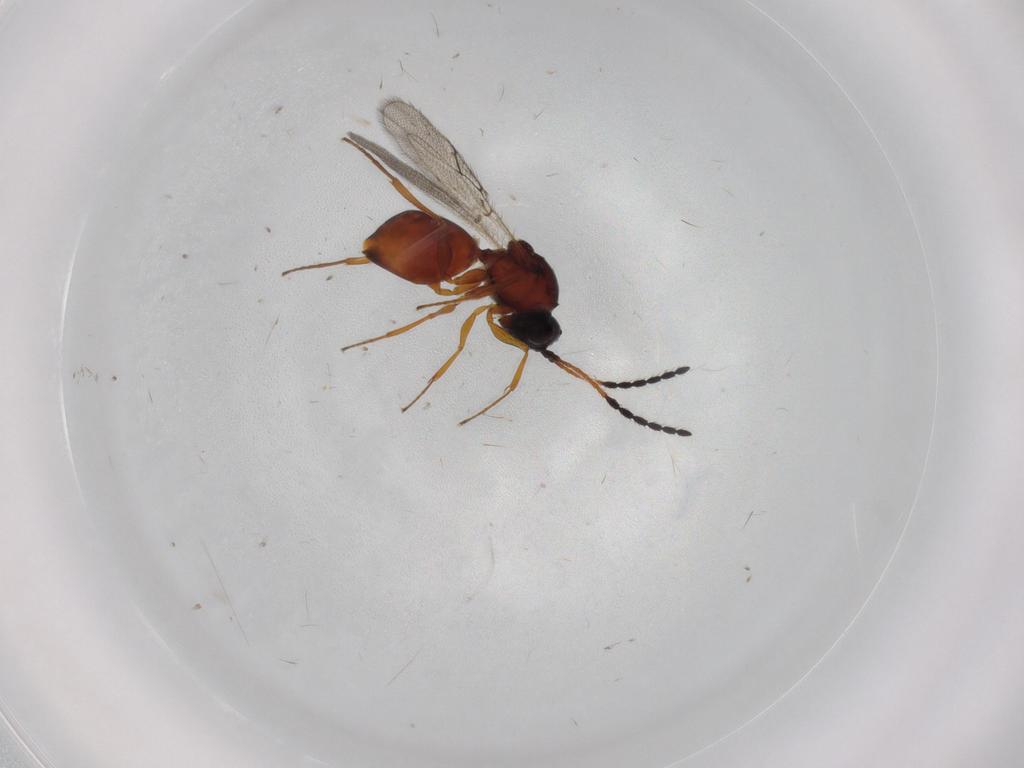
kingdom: Animalia
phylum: Arthropoda
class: Insecta
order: Hymenoptera
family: Figitidae
